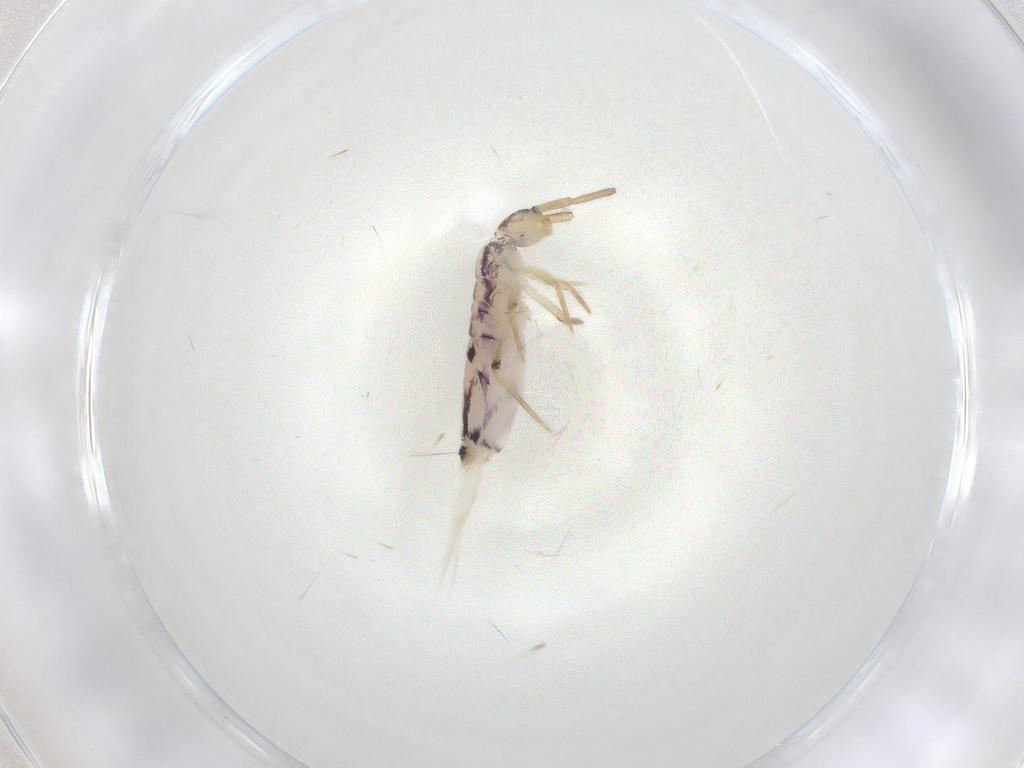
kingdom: Animalia
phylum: Arthropoda
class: Collembola
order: Entomobryomorpha
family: Entomobryidae
